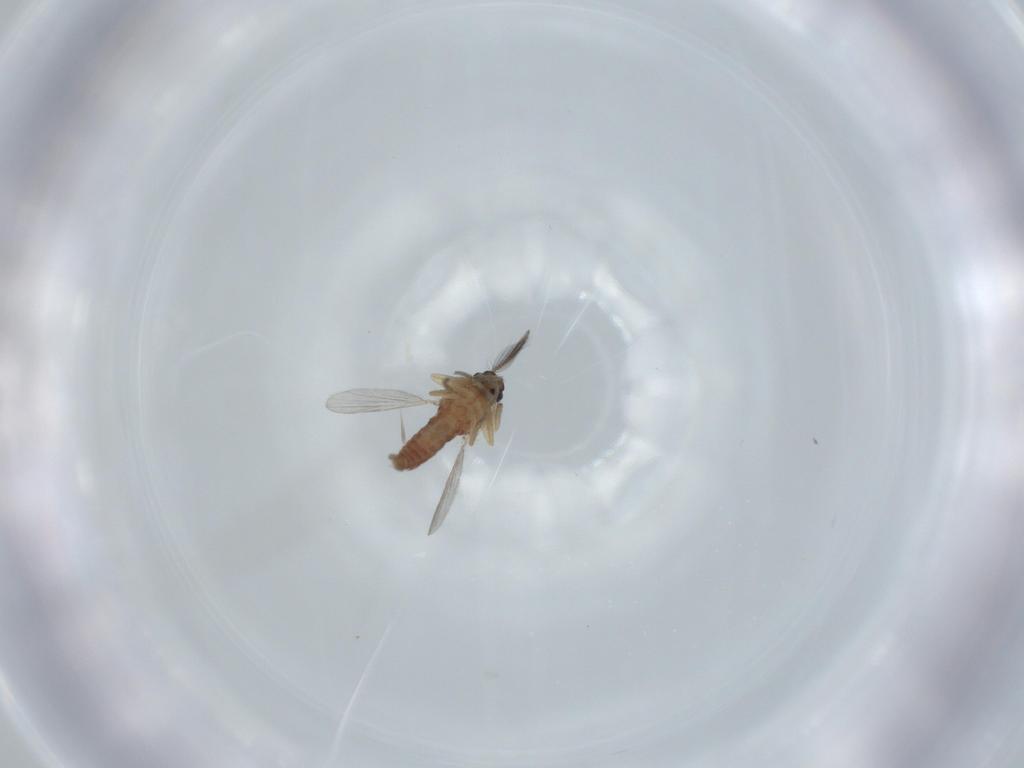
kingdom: Animalia
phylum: Arthropoda
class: Insecta
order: Diptera
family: Ceratopogonidae
